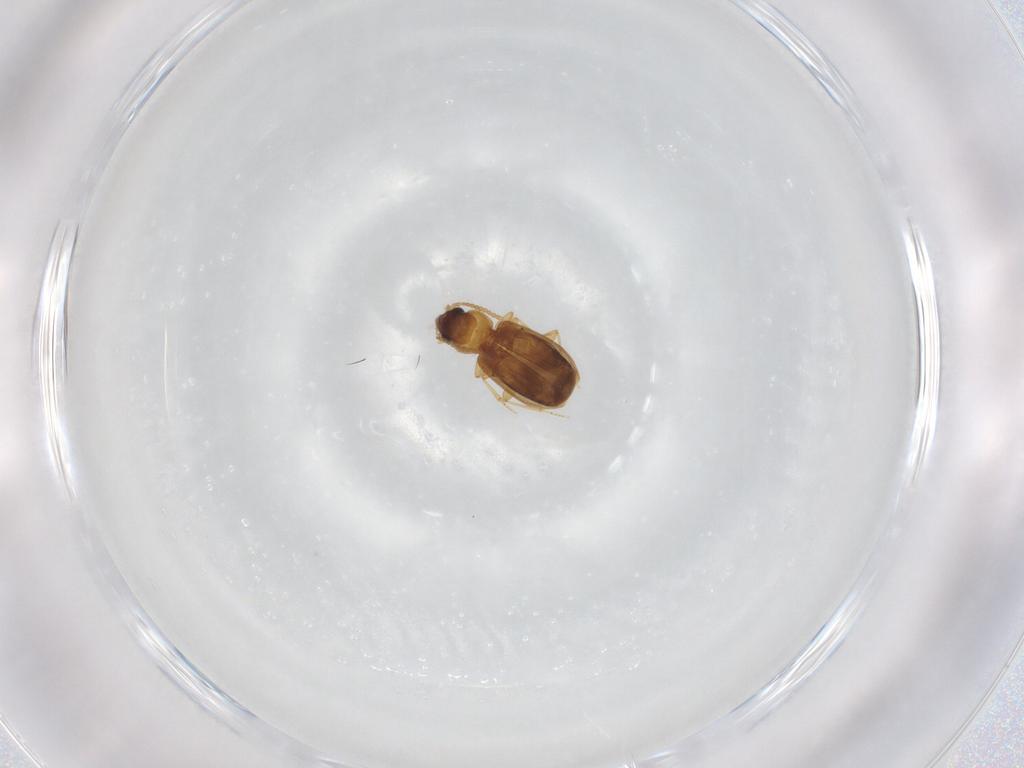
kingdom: Animalia
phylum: Arthropoda
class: Insecta
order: Coleoptera
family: Carabidae
